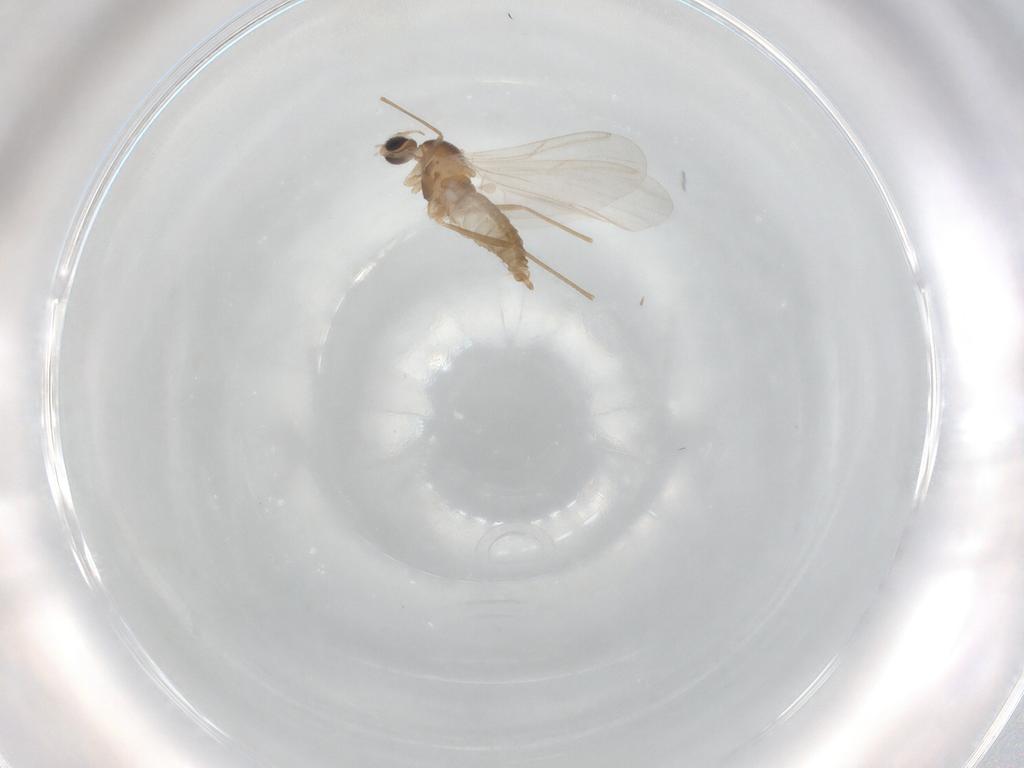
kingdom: Animalia
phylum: Arthropoda
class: Insecta
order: Diptera
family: Cecidomyiidae
